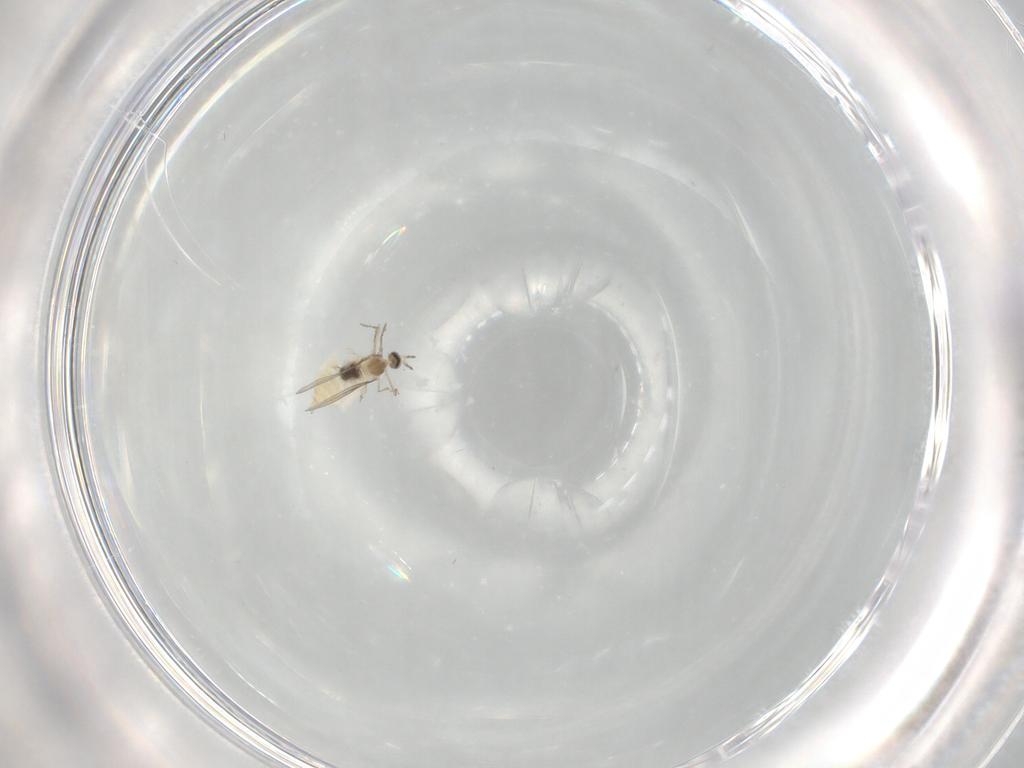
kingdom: Animalia
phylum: Arthropoda
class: Insecta
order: Diptera
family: Cecidomyiidae
